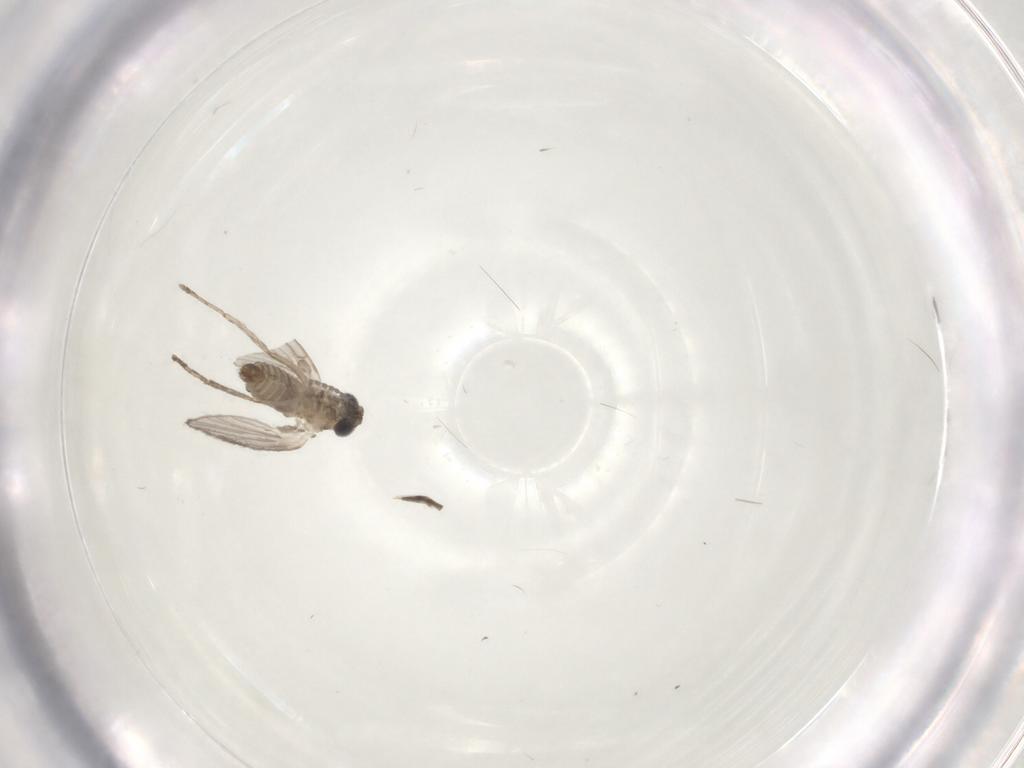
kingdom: Animalia
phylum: Arthropoda
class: Insecta
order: Diptera
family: Psychodidae
